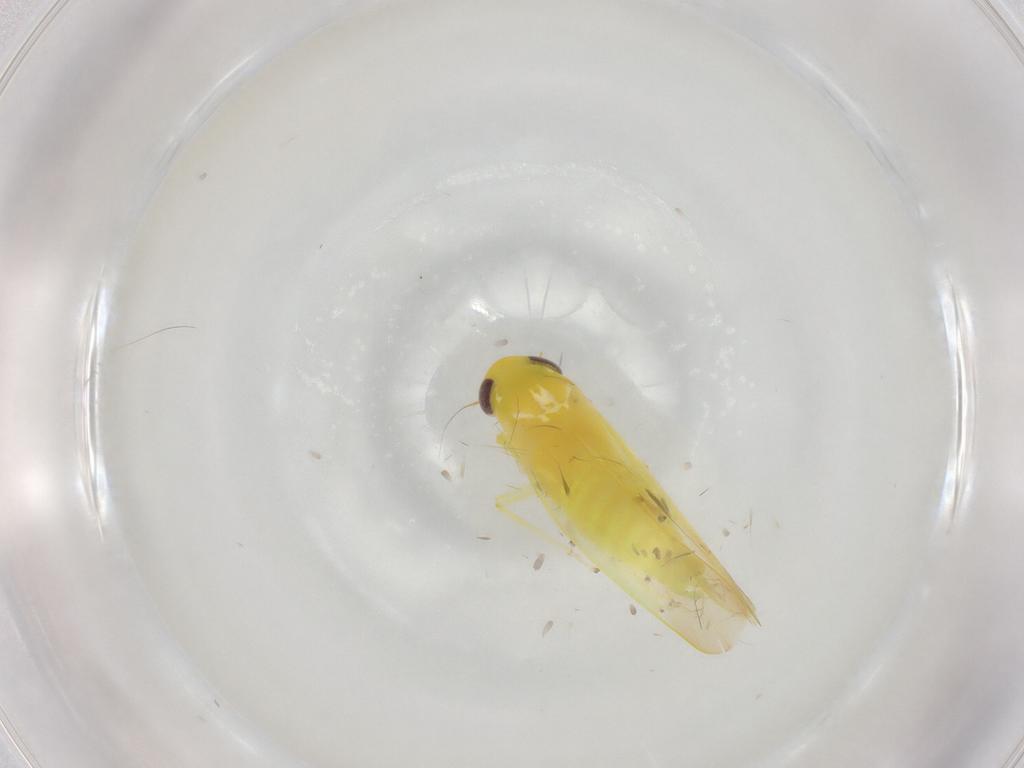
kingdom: Animalia
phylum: Arthropoda
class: Insecta
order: Hemiptera
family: Cicadellidae
